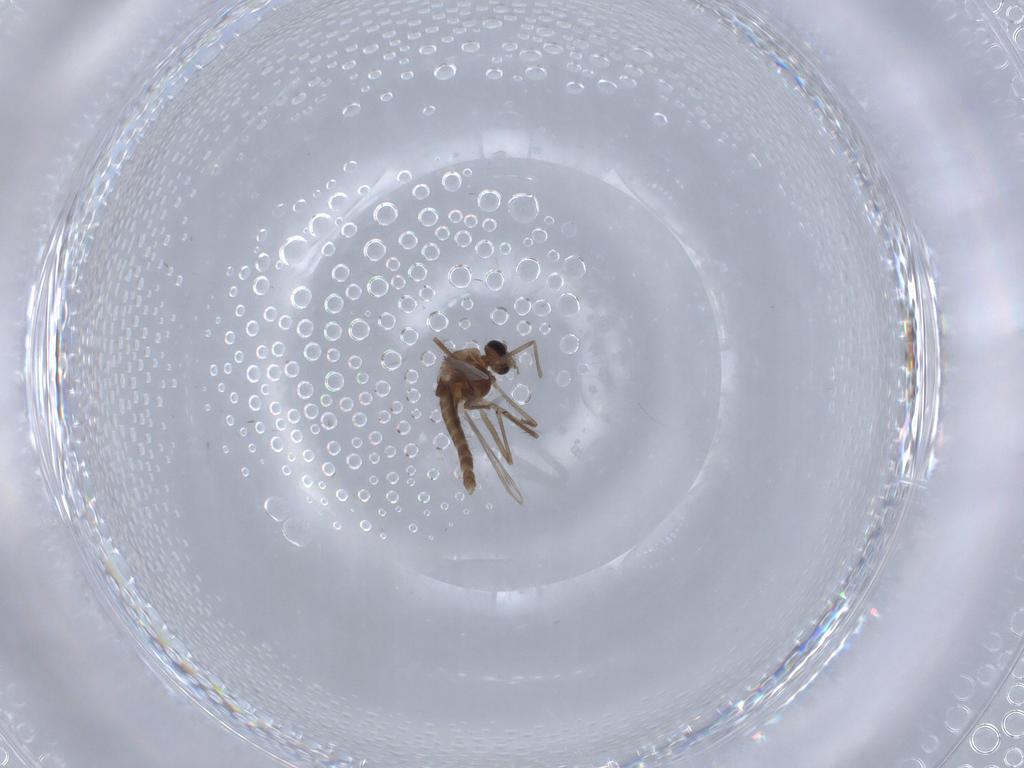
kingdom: Animalia
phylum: Arthropoda
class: Insecta
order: Diptera
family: Chironomidae
